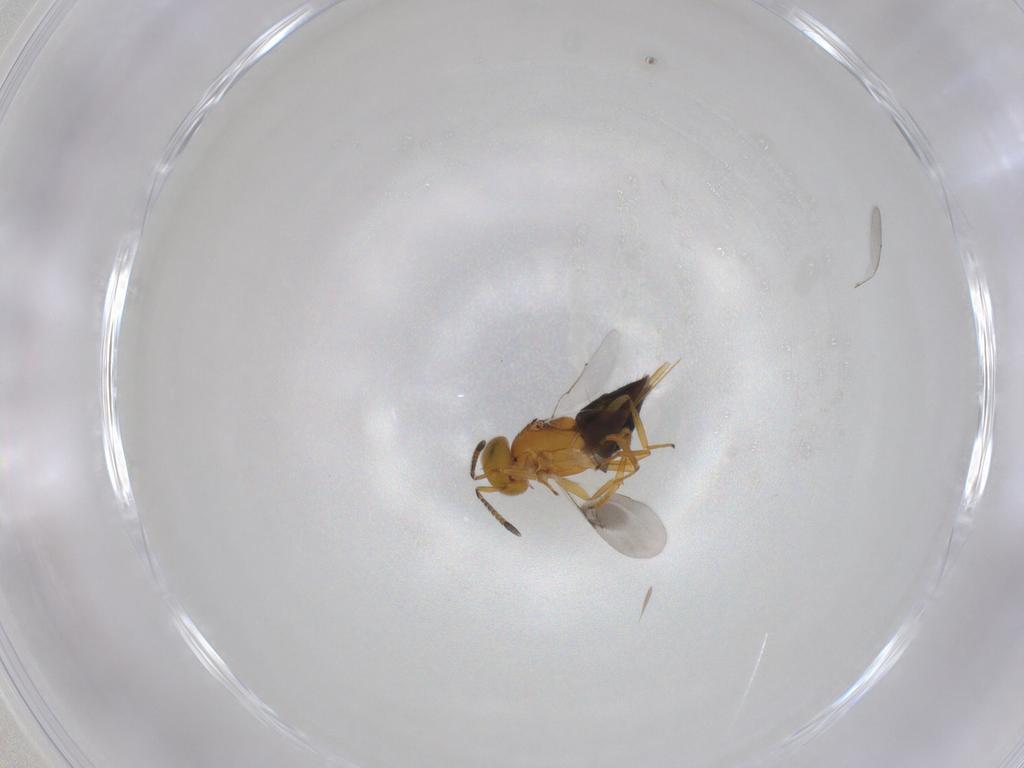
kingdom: Animalia
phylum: Arthropoda
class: Insecta
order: Hymenoptera
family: Encyrtidae
